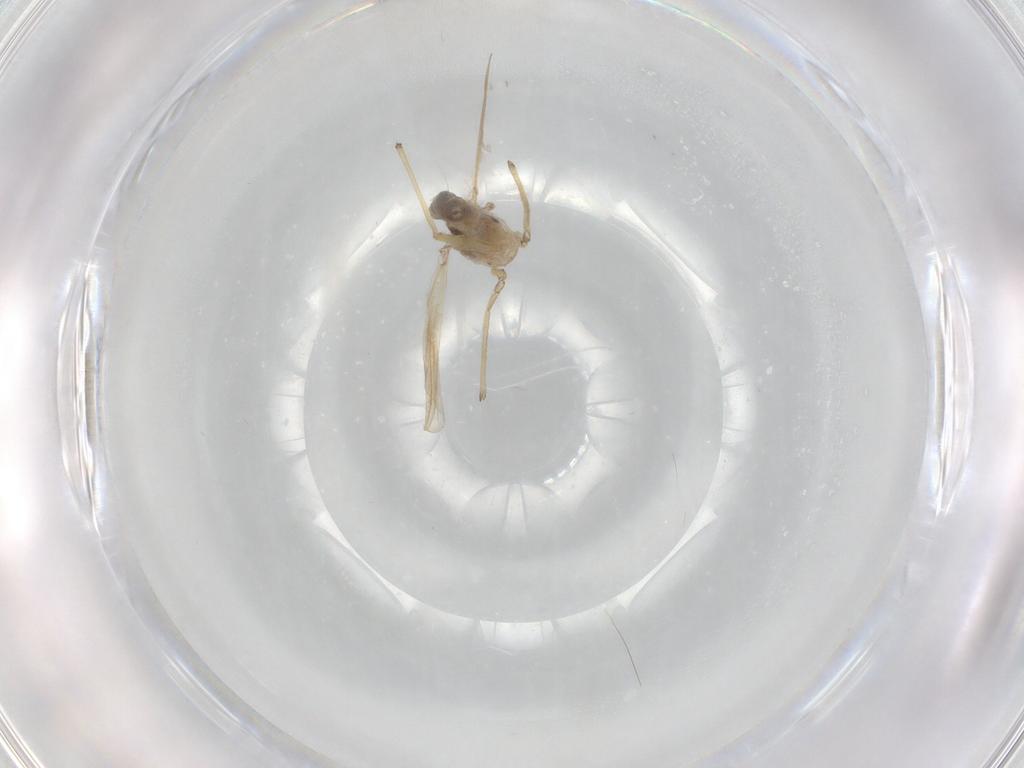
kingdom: Animalia
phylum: Arthropoda
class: Insecta
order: Diptera
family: Chironomidae
